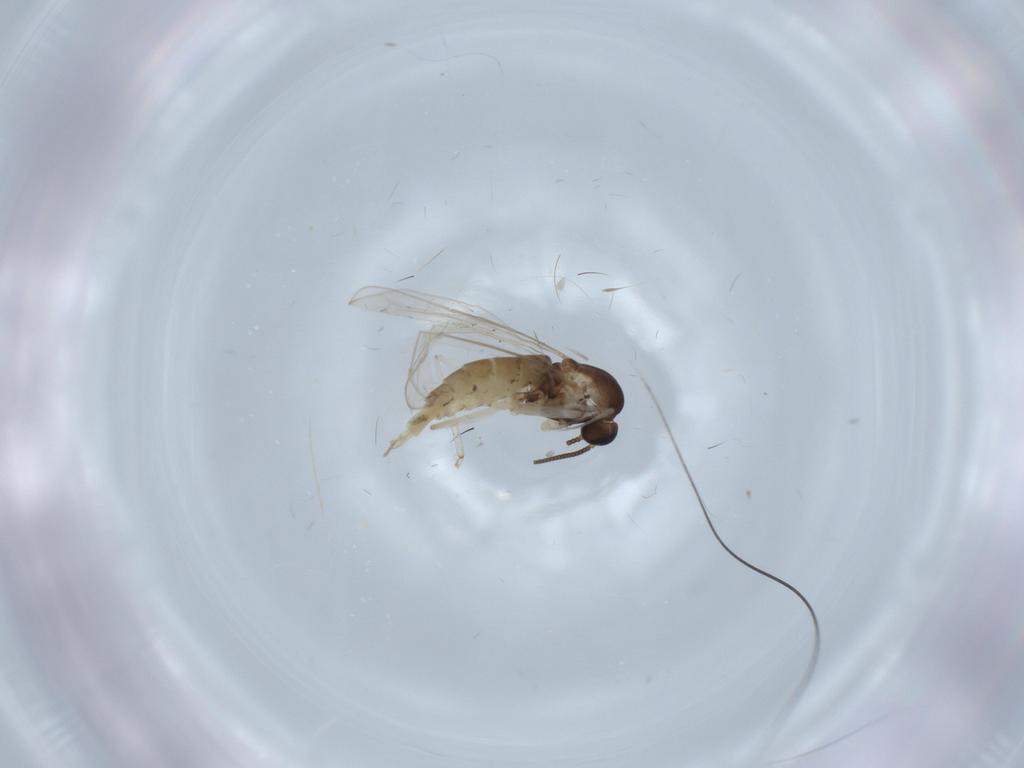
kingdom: Animalia
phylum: Arthropoda
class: Insecta
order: Diptera
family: Cecidomyiidae
